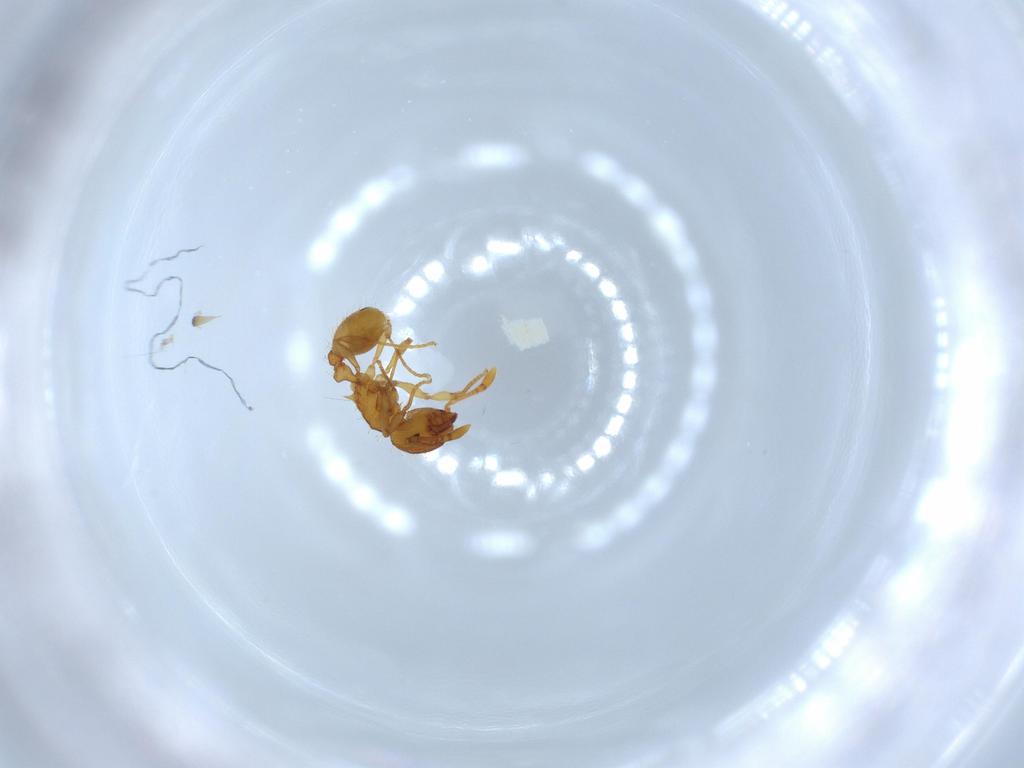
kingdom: Animalia
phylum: Arthropoda
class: Insecta
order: Hymenoptera
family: Formicidae
